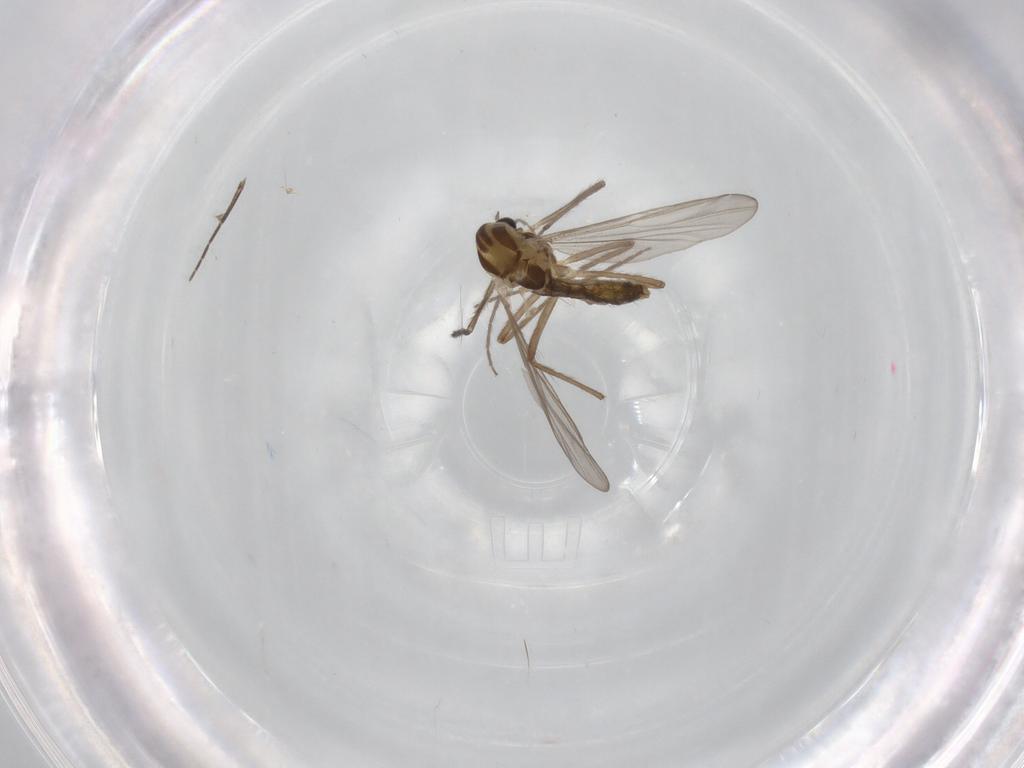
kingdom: Animalia
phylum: Arthropoda
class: Insecta
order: Diptera
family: Chironomidae
